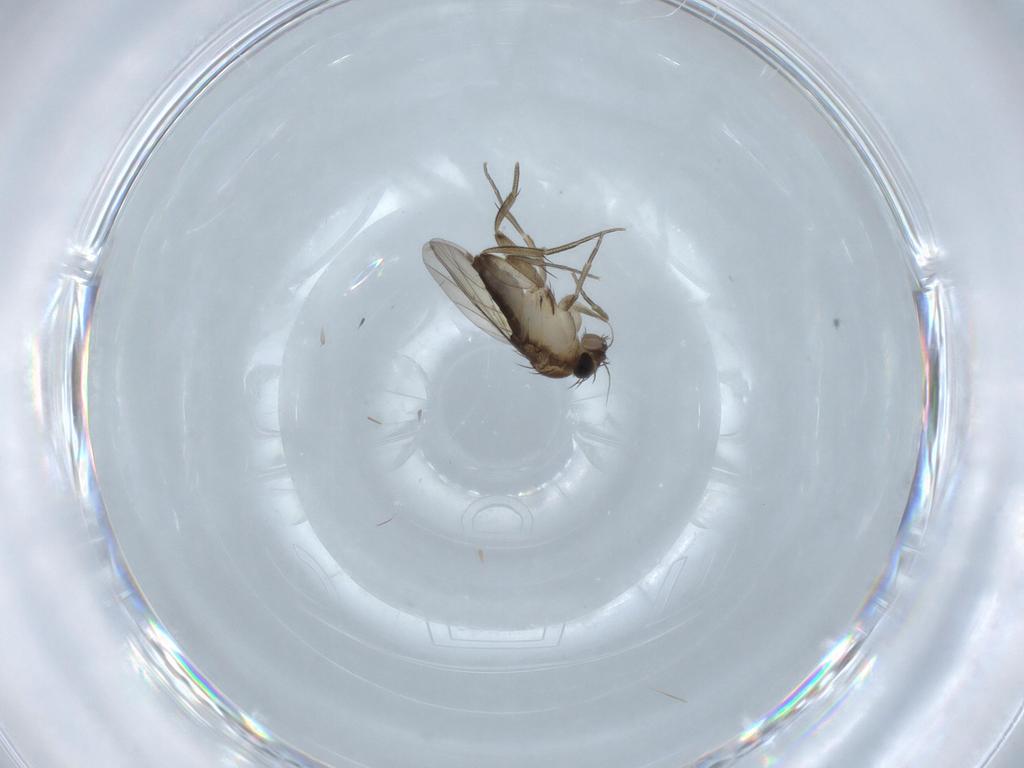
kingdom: Animalia
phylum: Arthropoda
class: Insecta
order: Diptera
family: Phoridae
